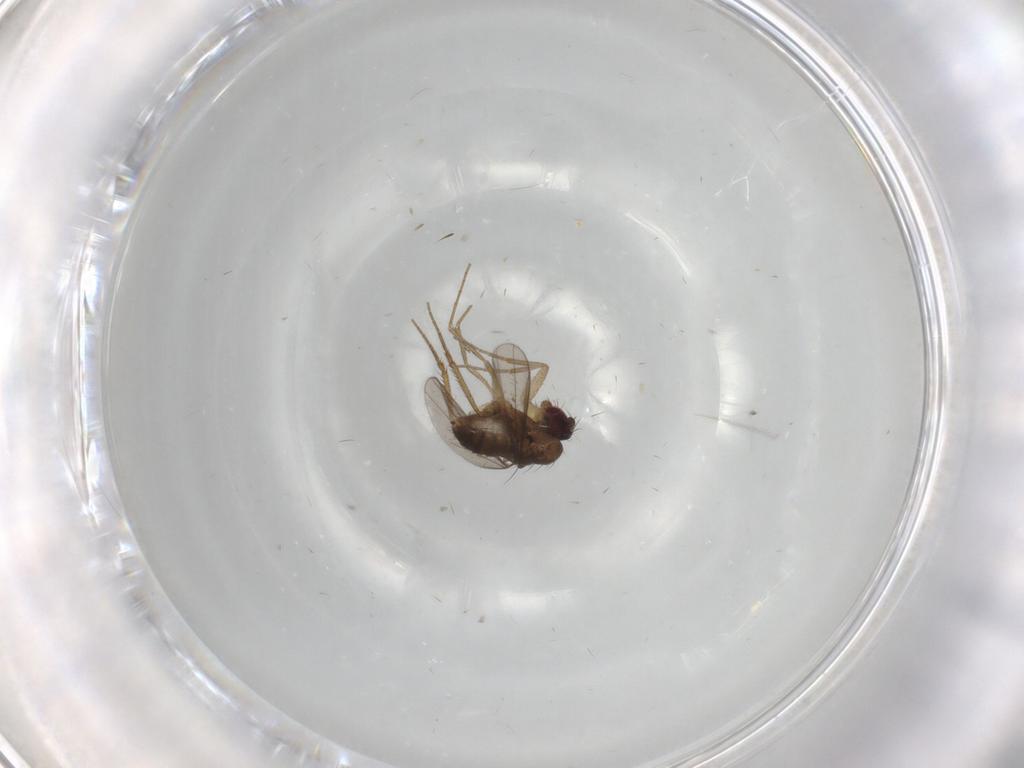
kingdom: Animalia
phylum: Arthropoda
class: Insecta
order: Diptera
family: Dolichopodidae
